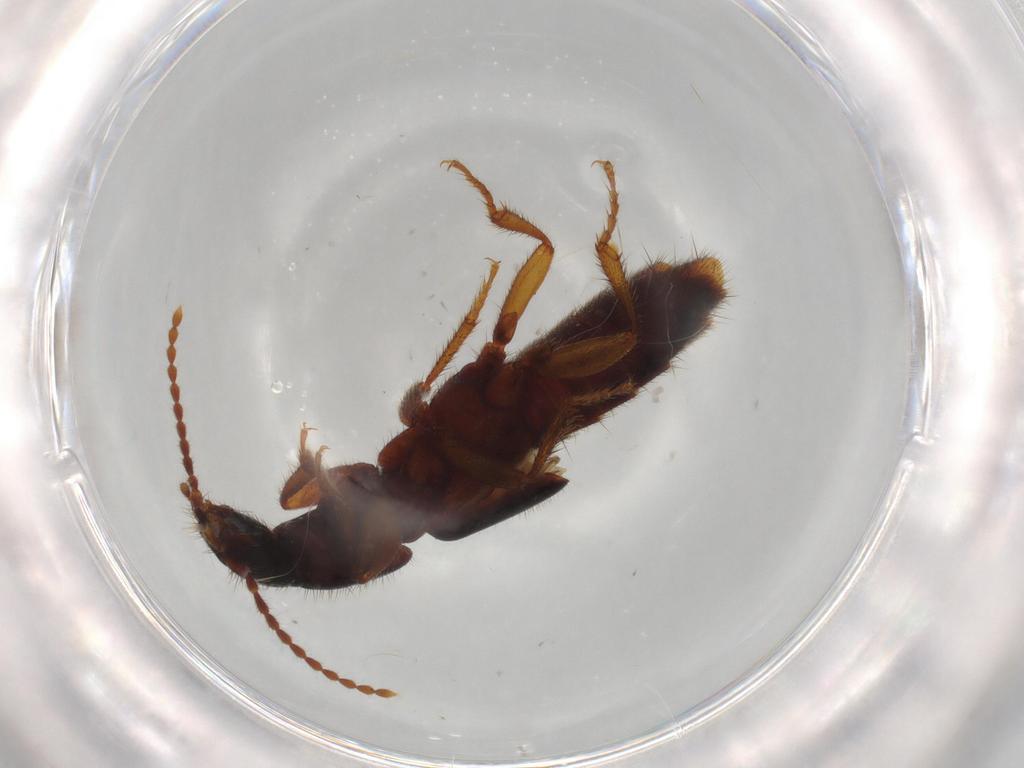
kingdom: Animalia
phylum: Arthropoda
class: Insecta
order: Coleoptera
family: Staphylinidae
